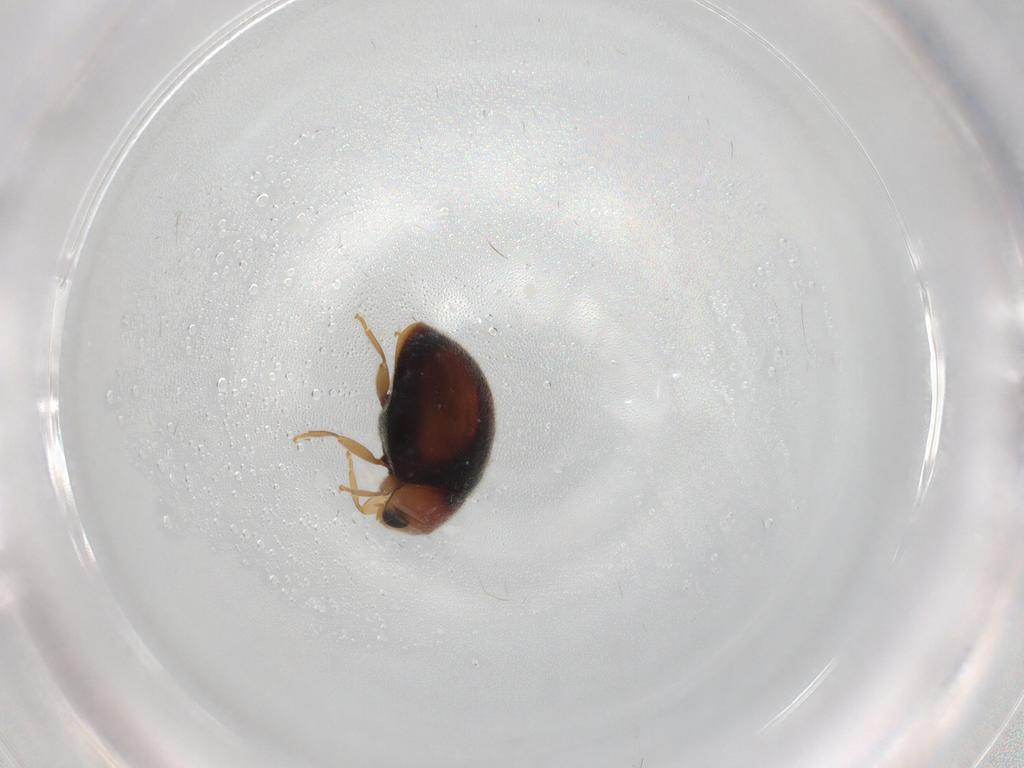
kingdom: Animalia
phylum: Arthropoda
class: Insecta
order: Coleoptera
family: Coccinellidae
